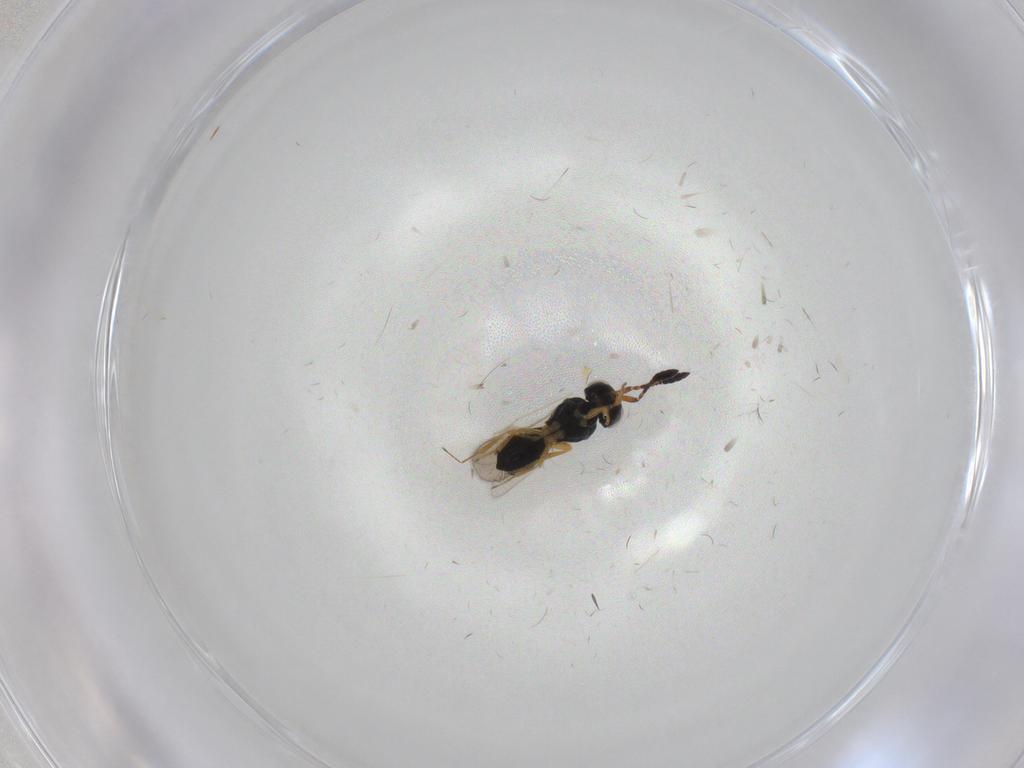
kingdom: Animalia
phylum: Arthropoda
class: Insecta
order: Hymenoptera
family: Scelionidae
